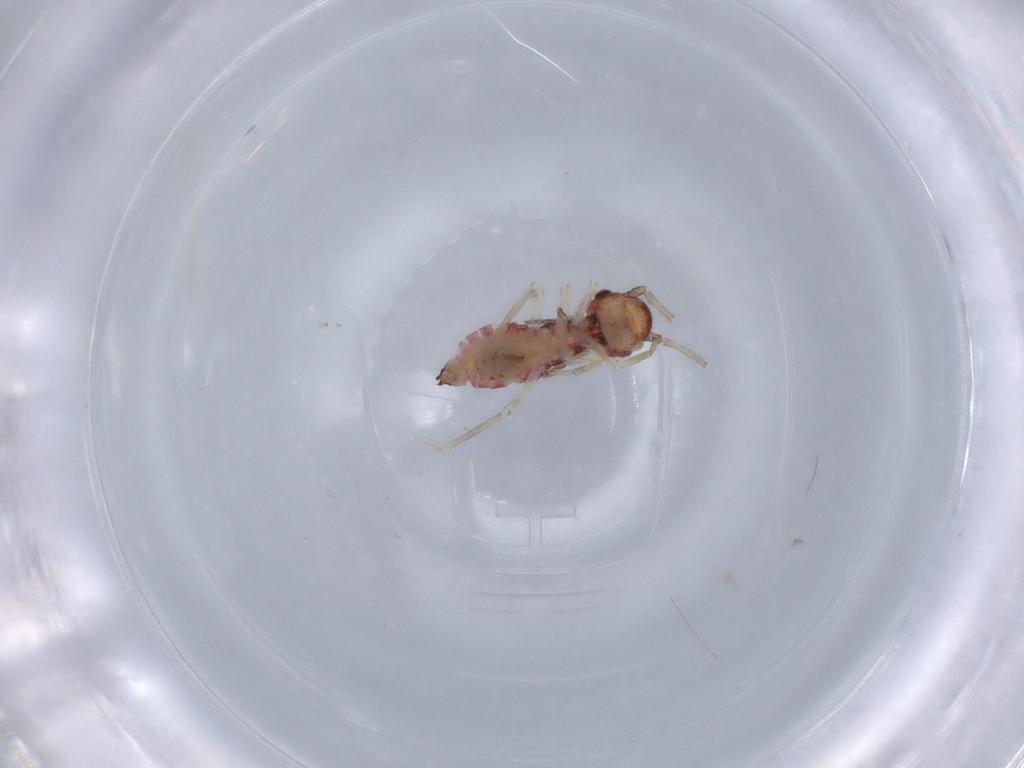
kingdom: Animalia
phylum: Arthropoda
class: Insecta
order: Psocodea
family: Caeciliusidae
